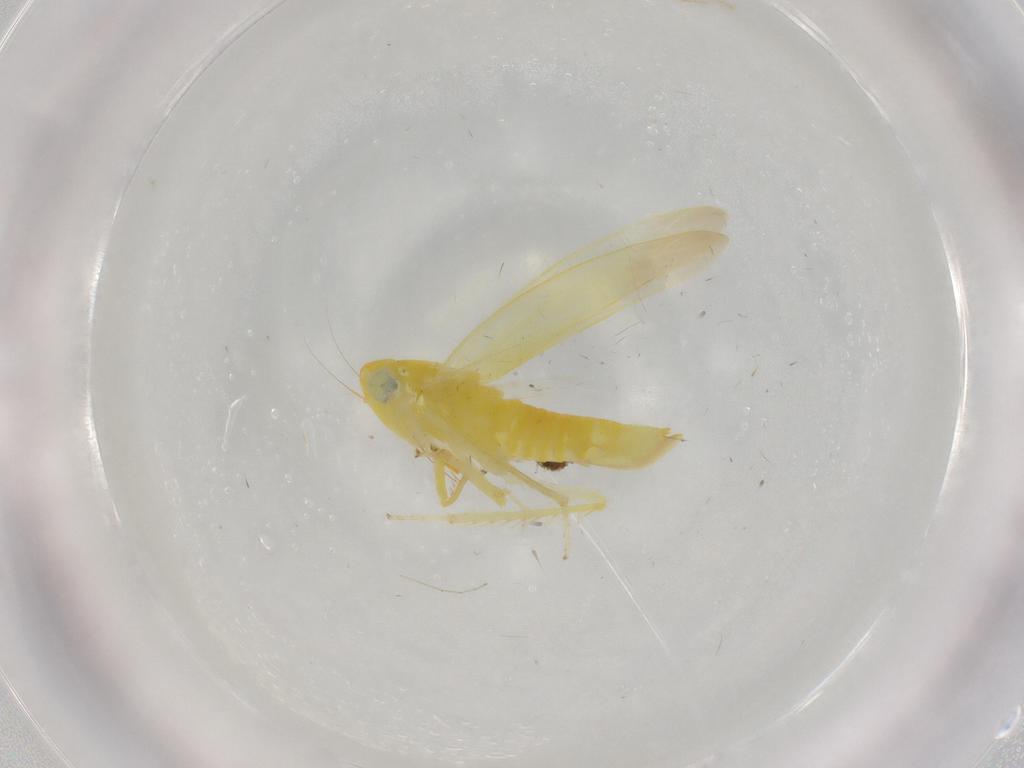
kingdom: Animalia
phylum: Arthropoda
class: Insecta
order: Hemiptera
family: Cicadellidae
